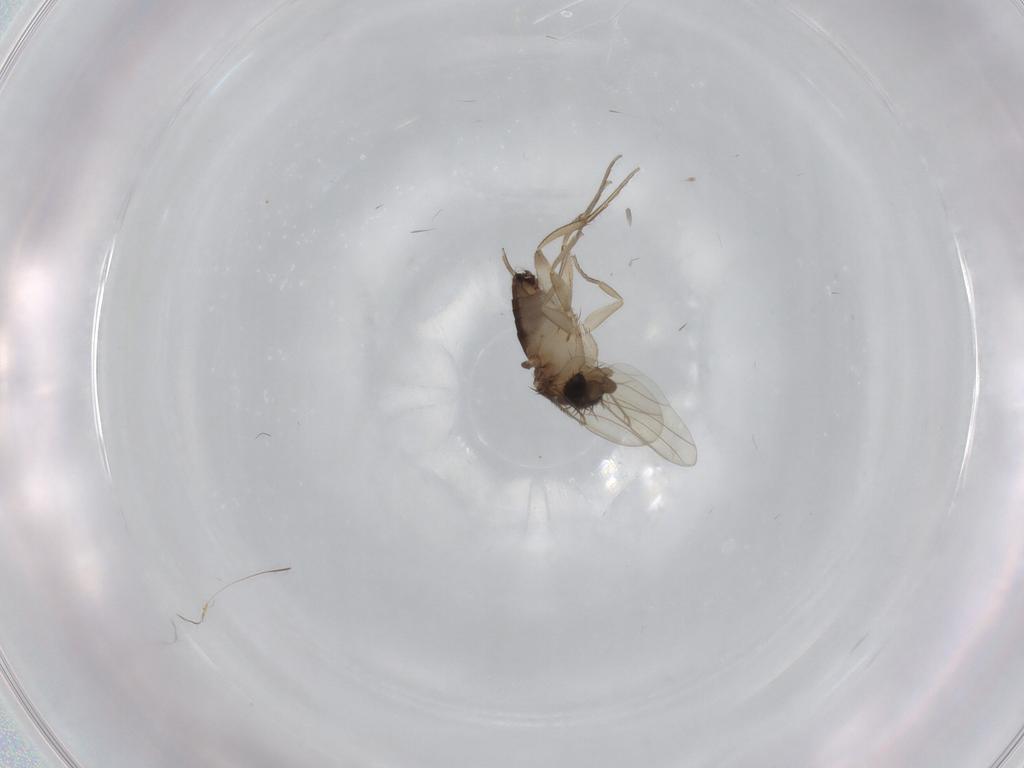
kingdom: Animalia
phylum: Arthropoda
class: Insecta
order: Diptera
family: Phoridae
